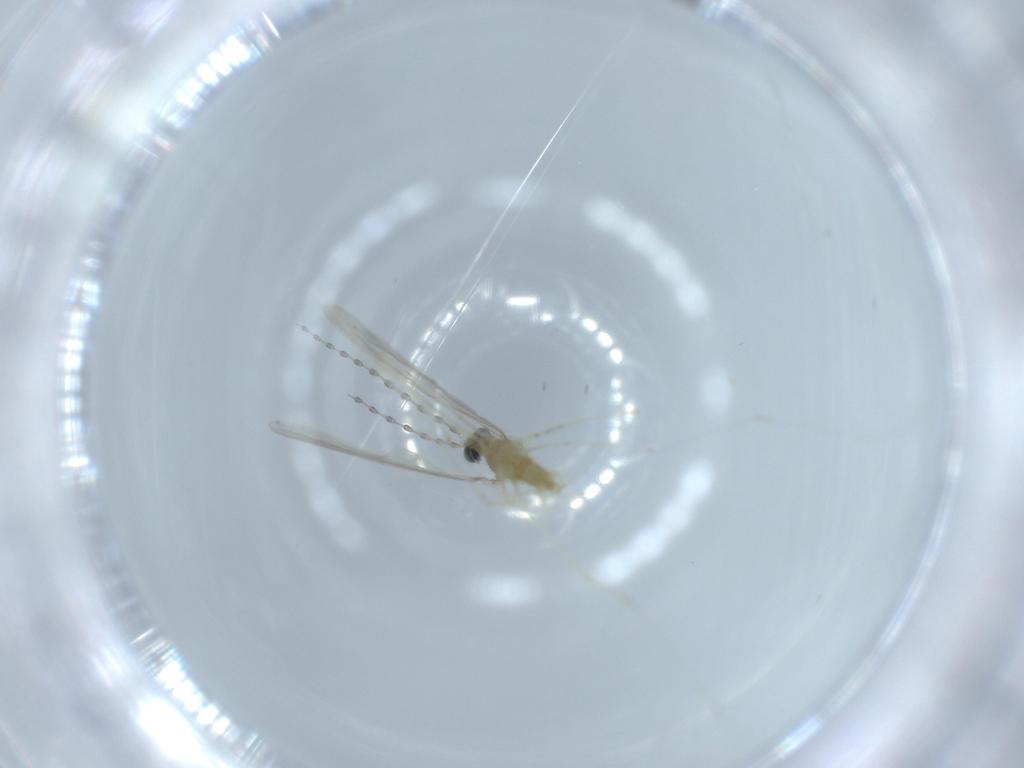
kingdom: Animalia
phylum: Arthropoda
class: Insecta
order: Diptera
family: Cecidomyiidae
